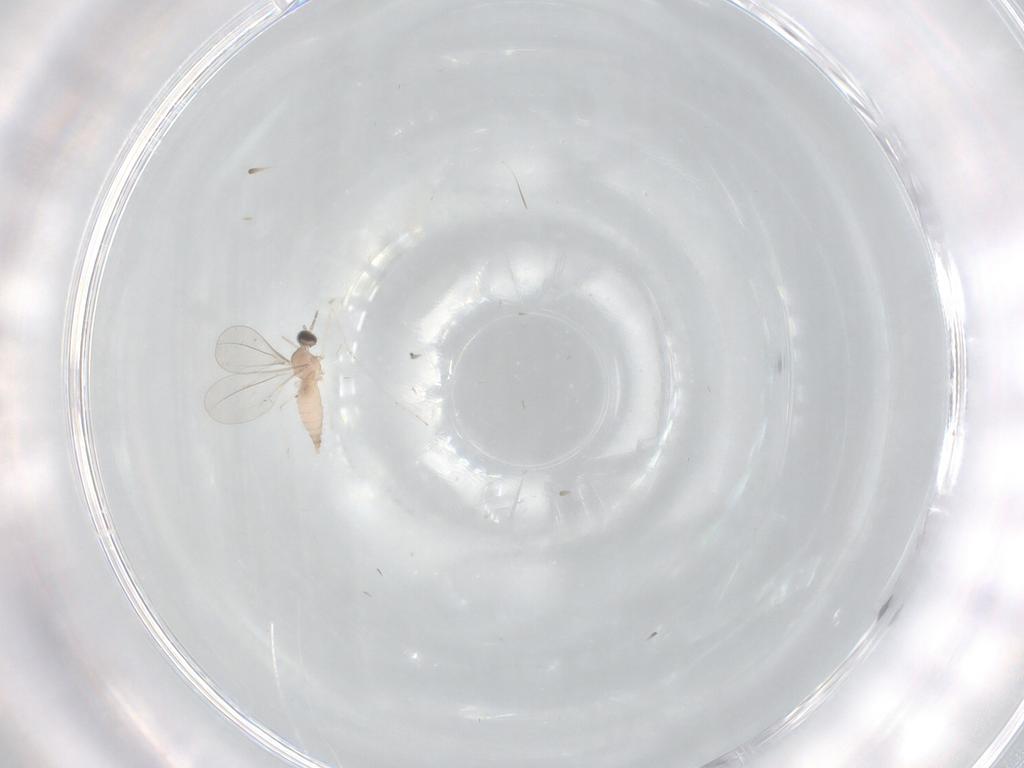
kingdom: Animalia
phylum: Arthropoda
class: Insecta
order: Diptera
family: Cecidomyiidae
